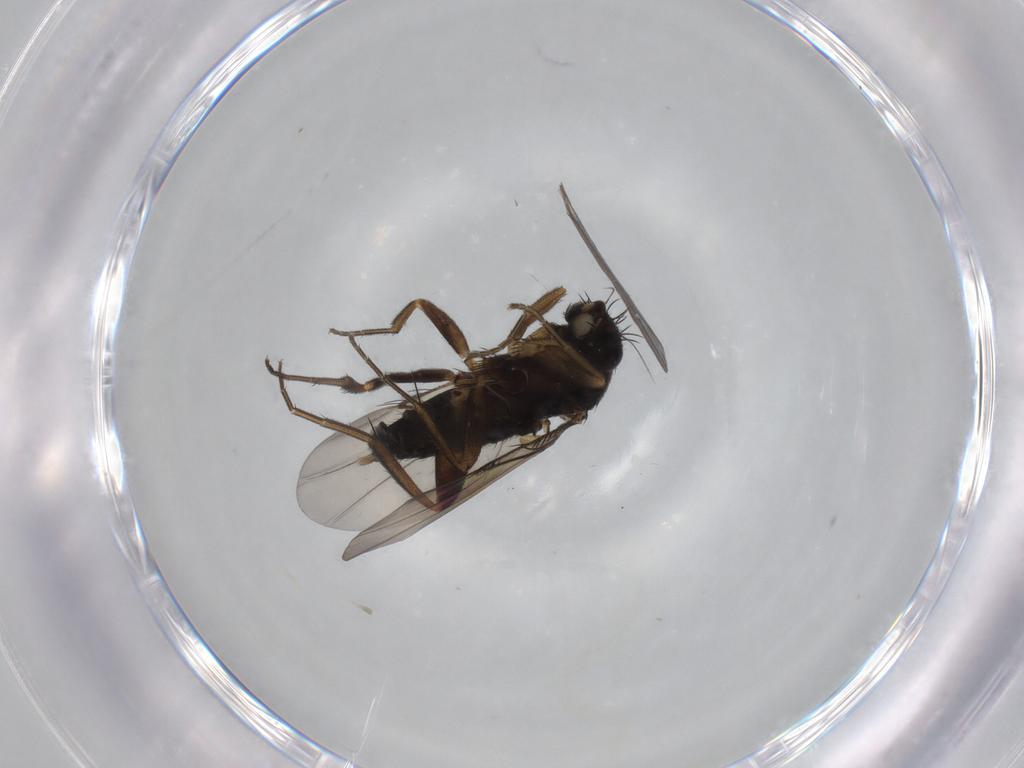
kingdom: Animalia
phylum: Arthropoda
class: Insecta
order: Diptera
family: Phoridae
